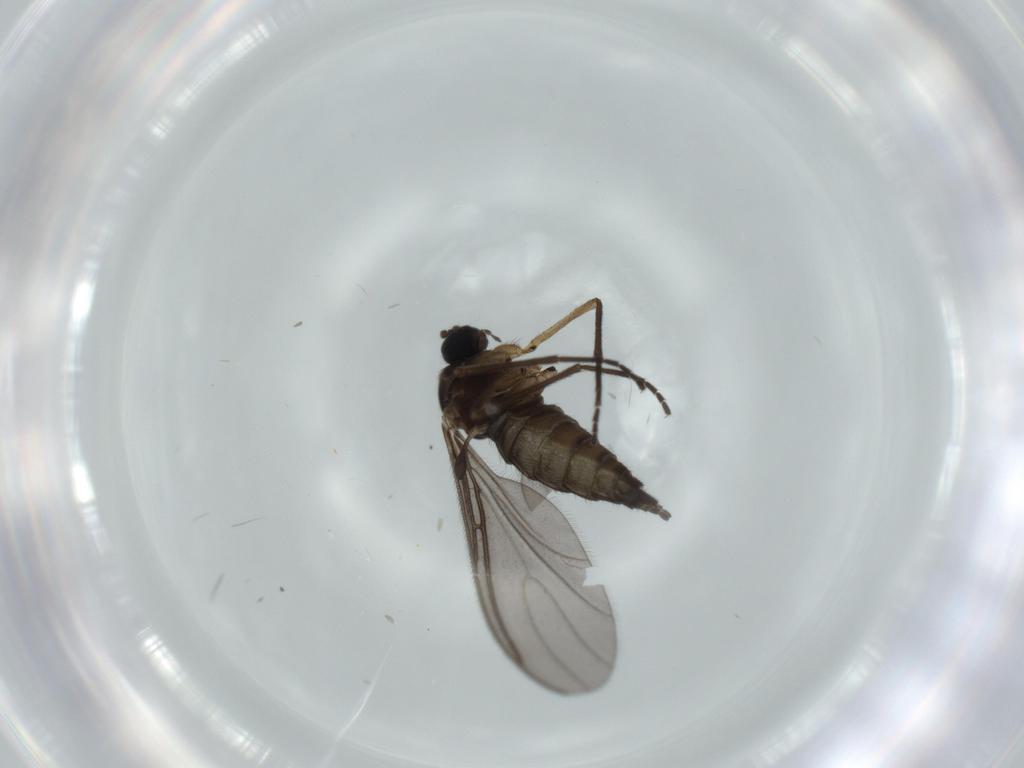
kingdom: Animalia
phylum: Arthropoda
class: Insecta
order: Diptera
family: Sciaridae
